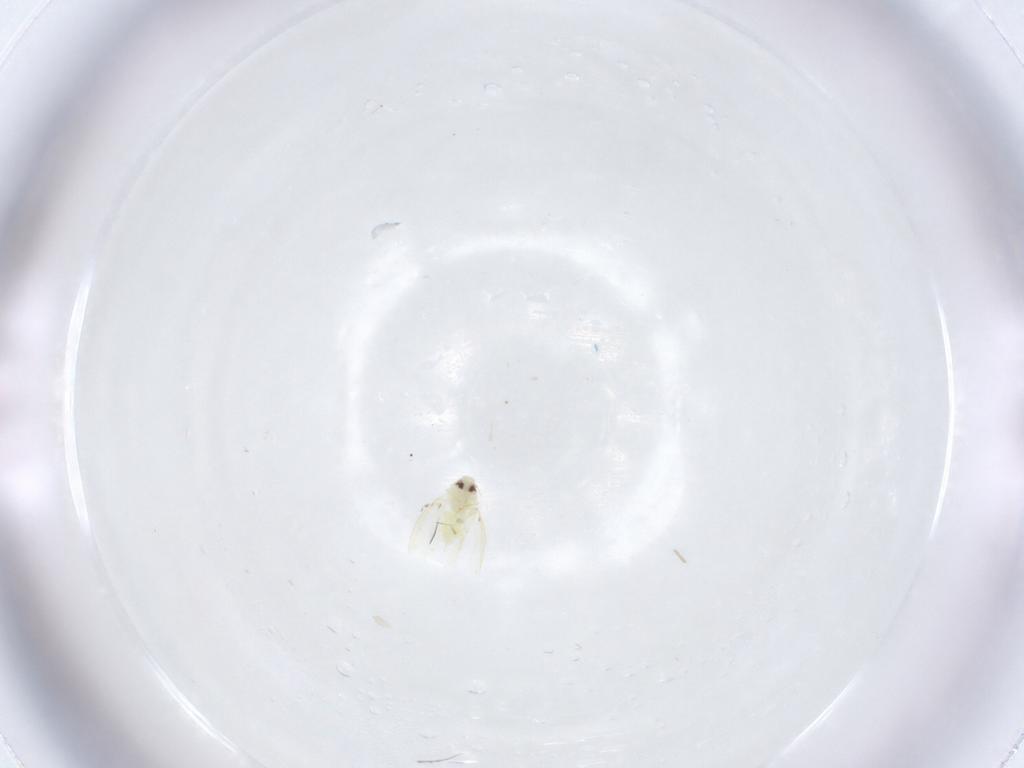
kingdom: Animalia
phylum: Arthropoda
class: Insecta
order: Hemiptera
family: Aleyrodidae
